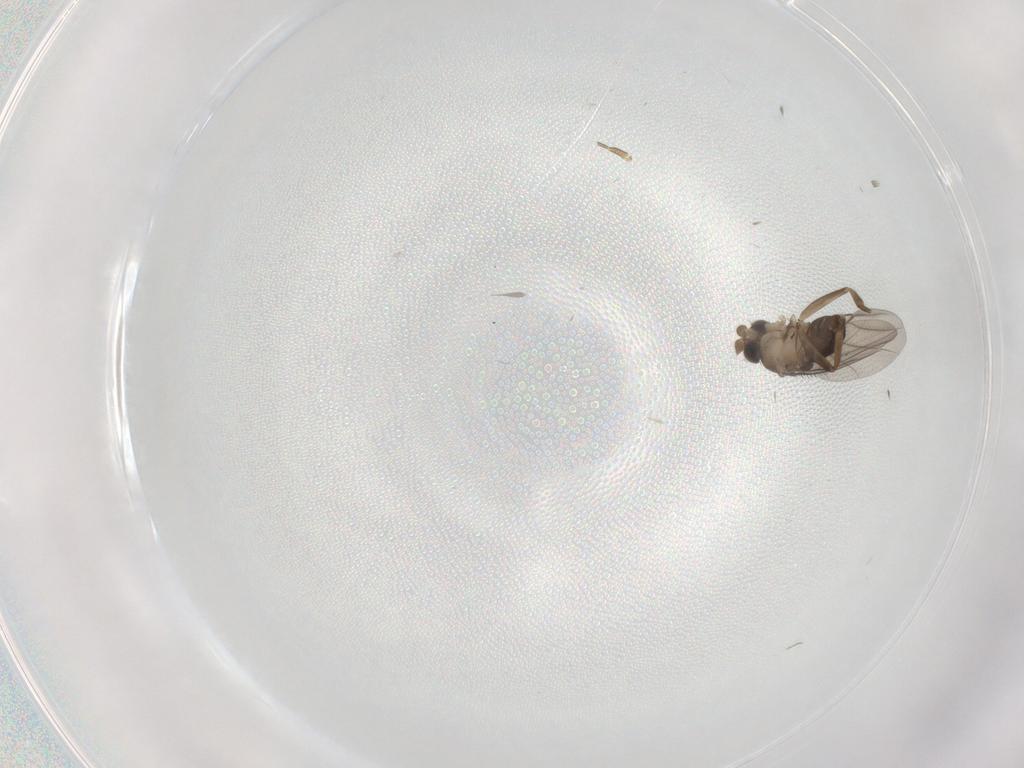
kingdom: Animalia
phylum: Arthropoda
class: Insecta
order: Diptera
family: Phoridae
